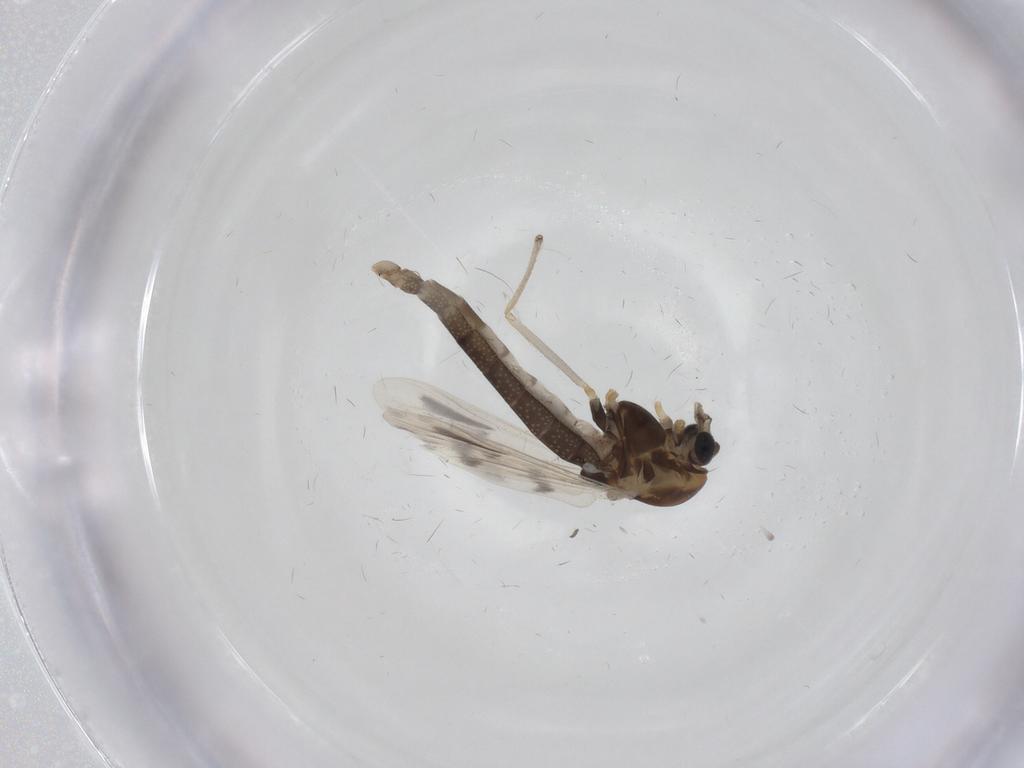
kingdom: Animalia
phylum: Arthropoda
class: Insecta
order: Diptera
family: Chironomidae
